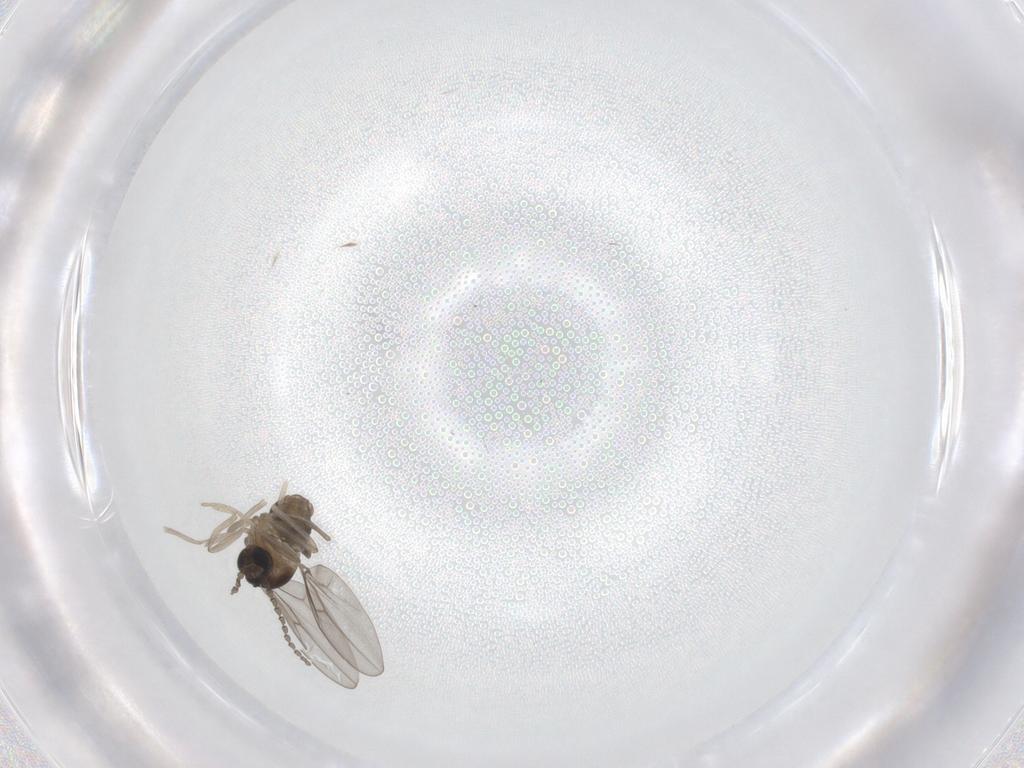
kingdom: Animalia
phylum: Arthropoda
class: Insecta
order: Diptera
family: Cecidomyiidae
